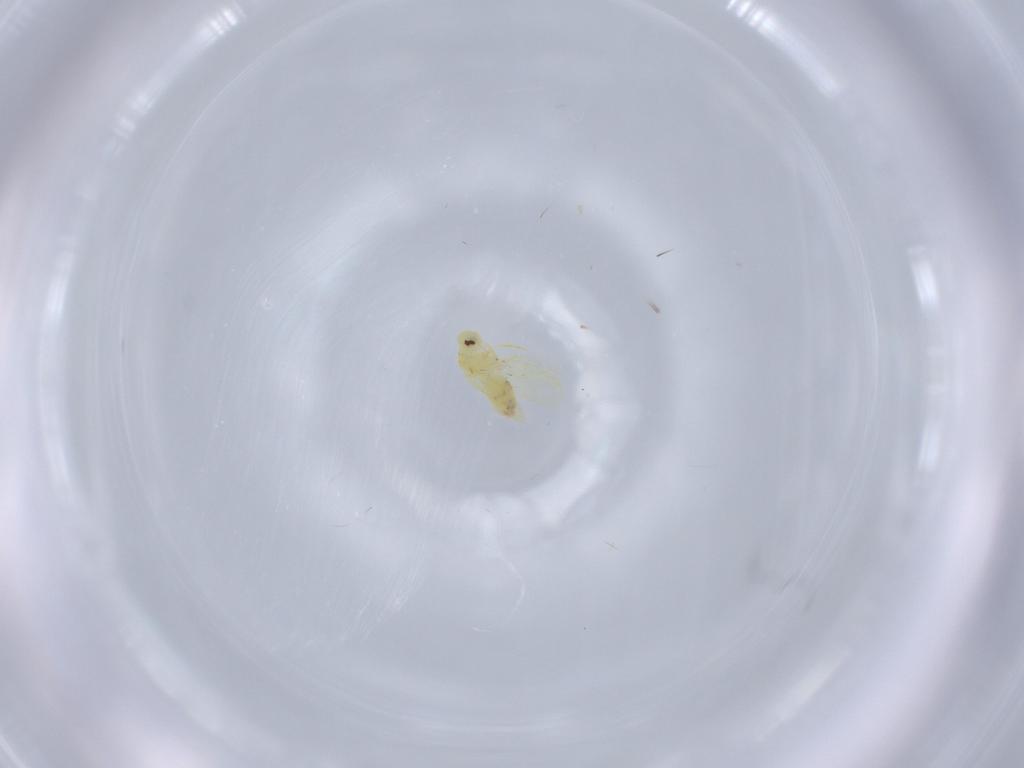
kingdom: Animalia
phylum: Arthropoda
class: Insecta
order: Hemiptera
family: Aleyrodidae
